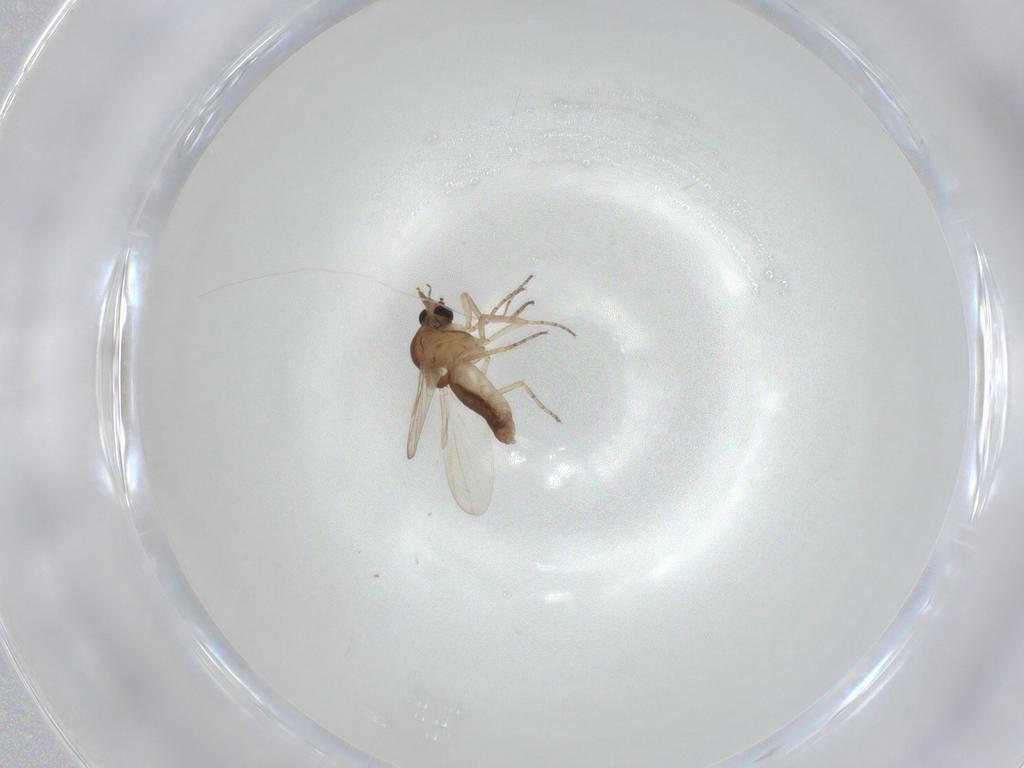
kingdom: Animalia
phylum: Arthropoda
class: Insecta
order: Diptera
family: Ceratopogonidae
